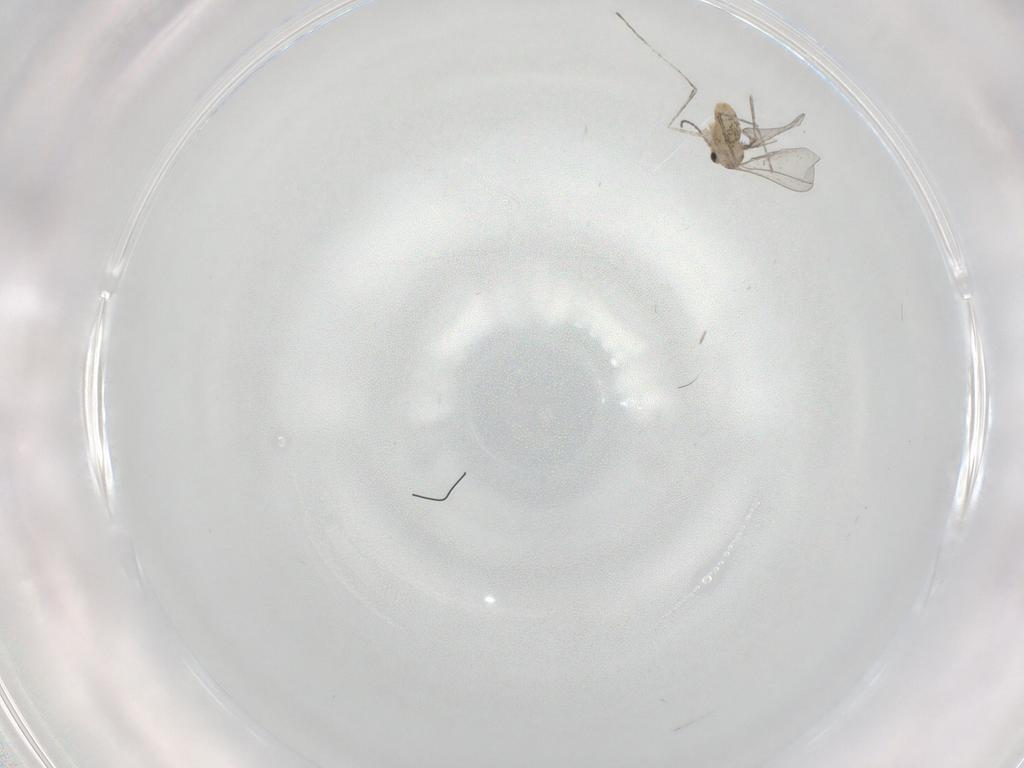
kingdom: Animalia
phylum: Arthropoda
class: Insecta
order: Diptera
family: Cecidomyiidae
